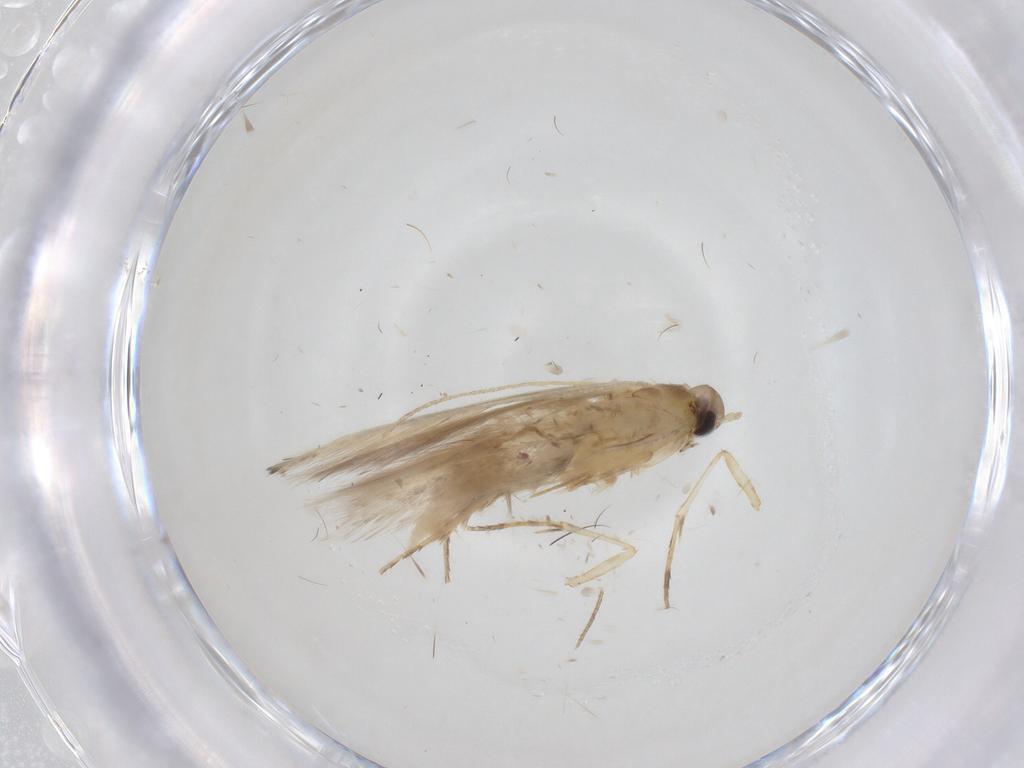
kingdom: Animalia
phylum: Arthropoda
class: Insecta
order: Lepidoptera
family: Gelechiidae
